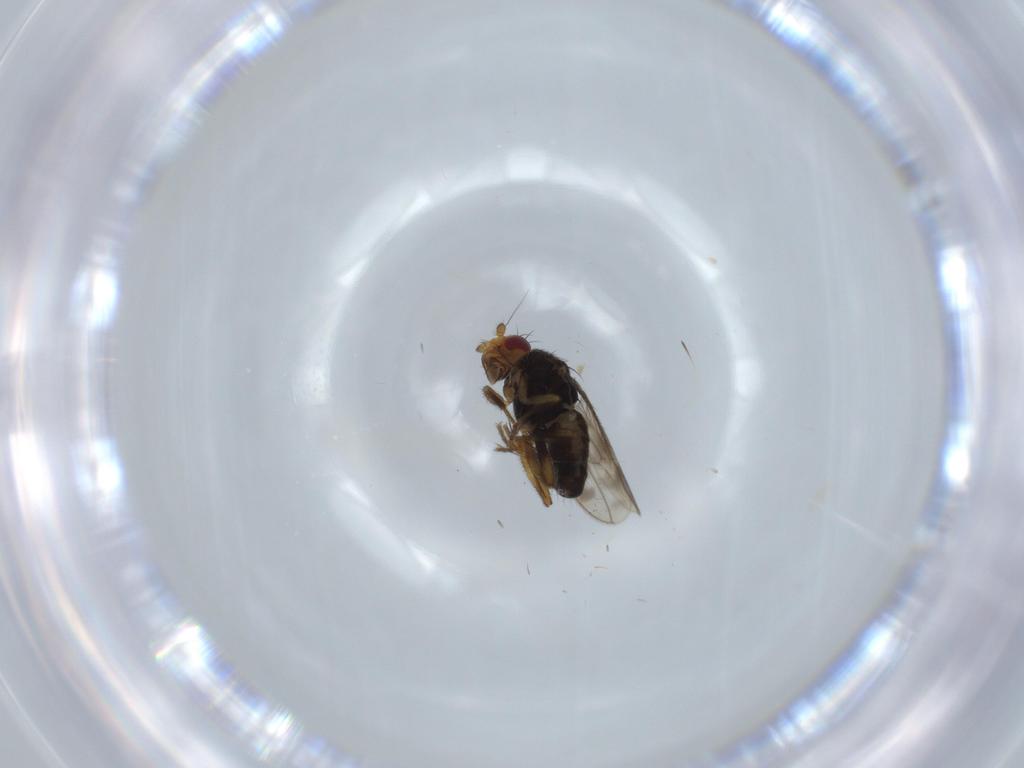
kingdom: Animalia
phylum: Arthropoda
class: Insecta
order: Diptera
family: Sphaeroceridae
